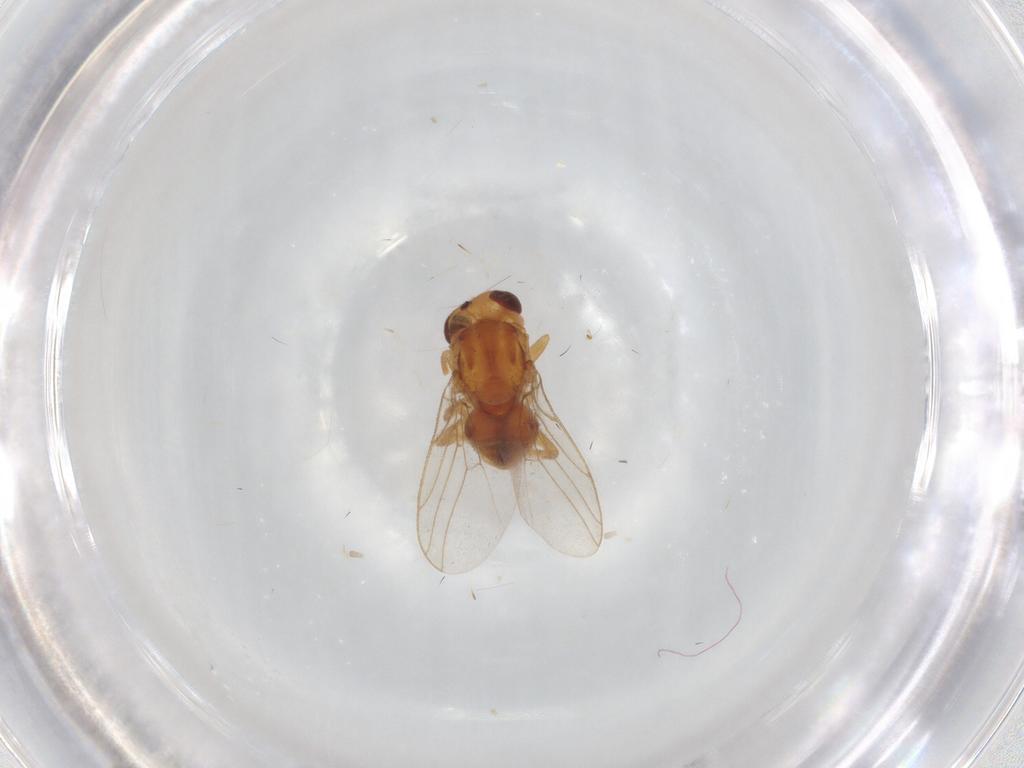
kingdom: Animalia
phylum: Arthropoda
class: Insecta
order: Diptera
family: Chloropidae
